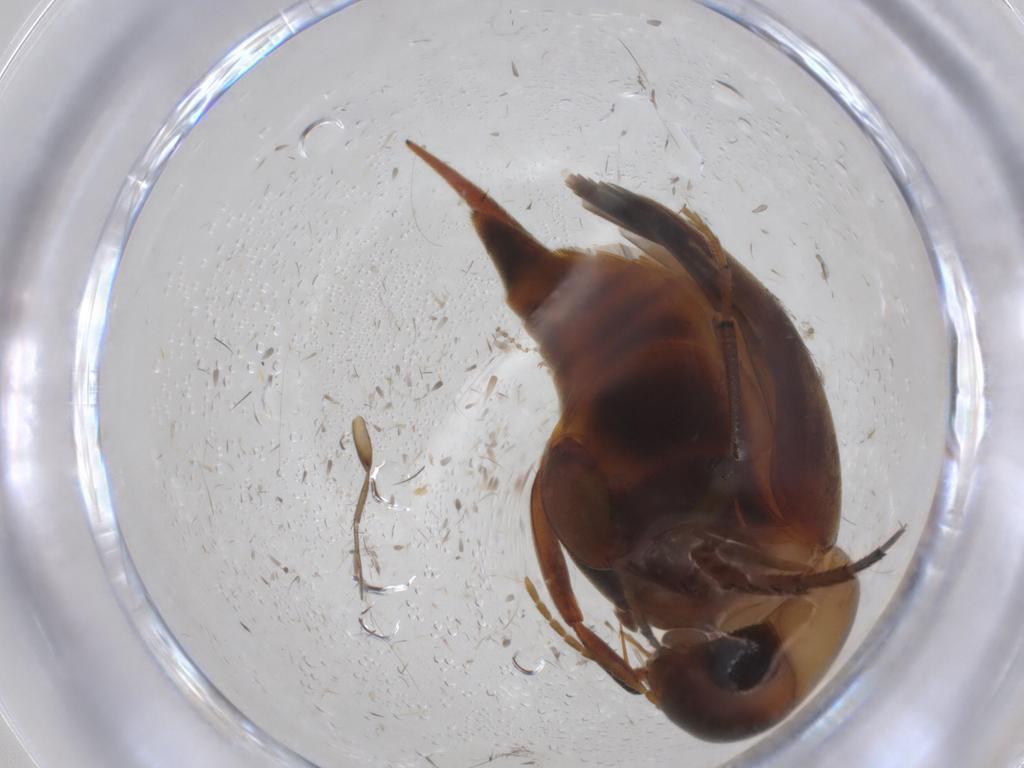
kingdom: Animalia
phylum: Arthropoda
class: Insecta
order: Coleoptera
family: Mordellidae
